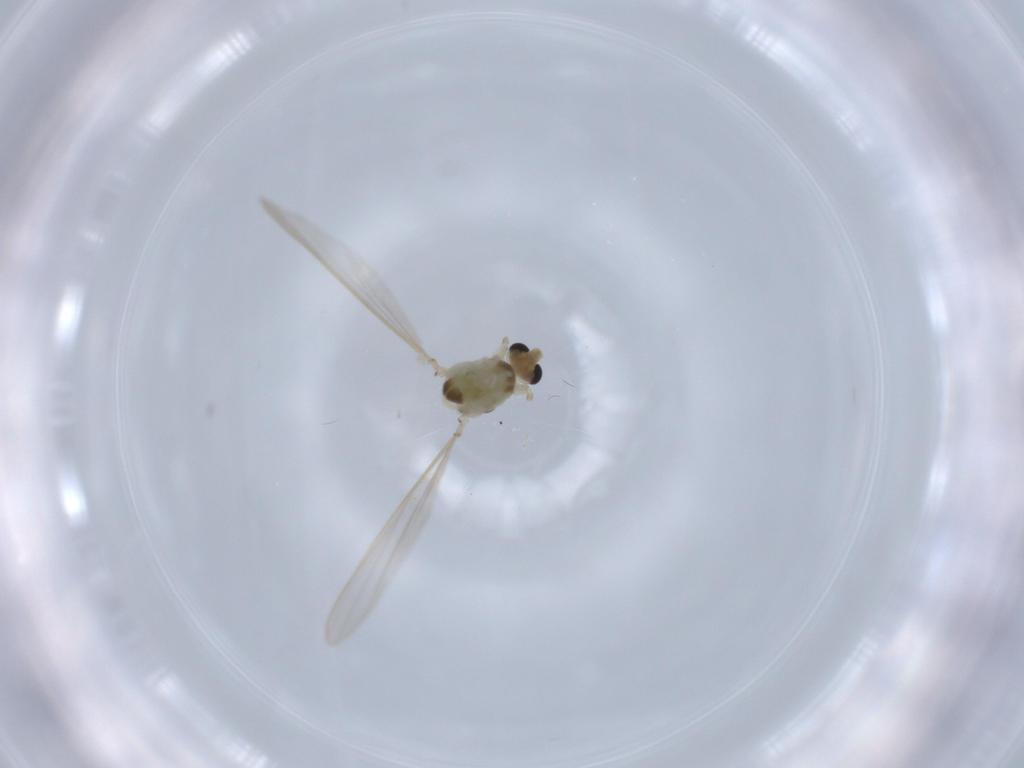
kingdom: Animalia
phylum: Arthropoda
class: Insecta
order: Diptera
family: Chironomidae
